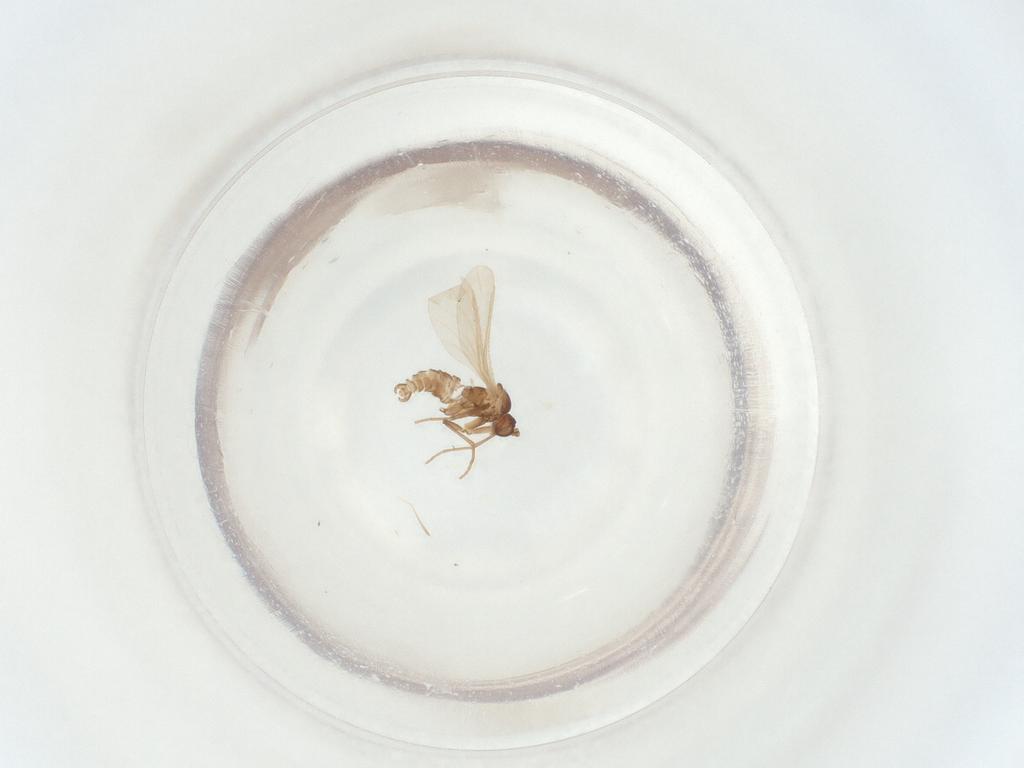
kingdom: Animalia
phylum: Arthropoda
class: Insecta
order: Diptera
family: Sciaridae
